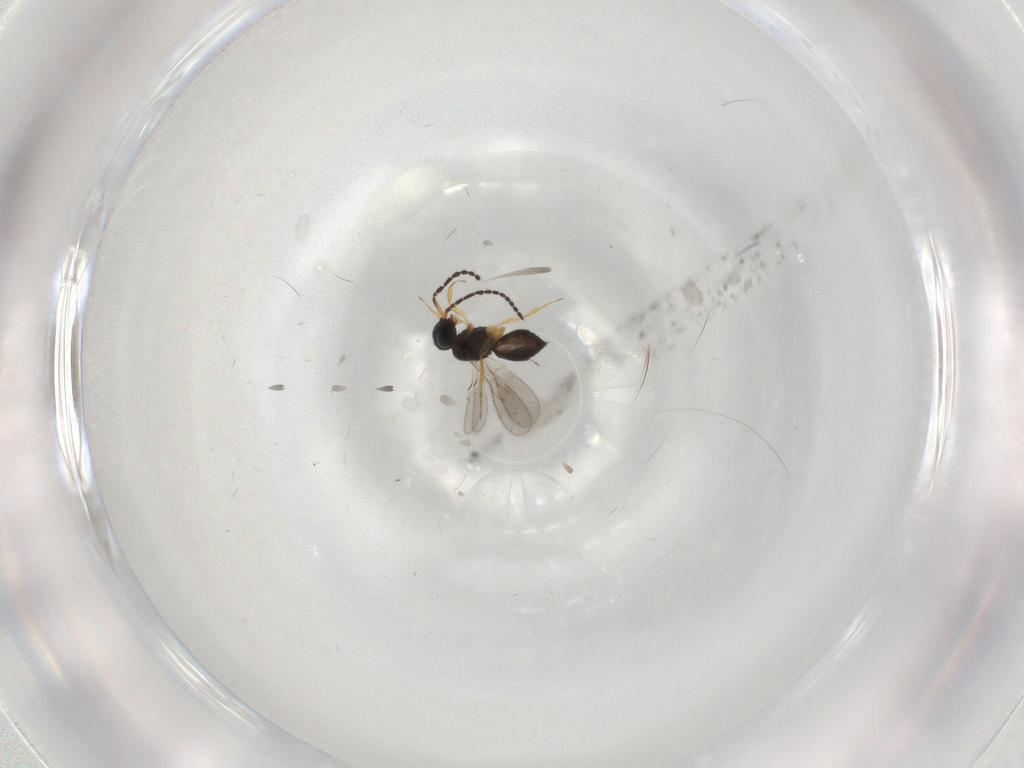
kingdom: Animalia
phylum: Arthropoda
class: Insecta
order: Hymenoptera
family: Scelionidae
